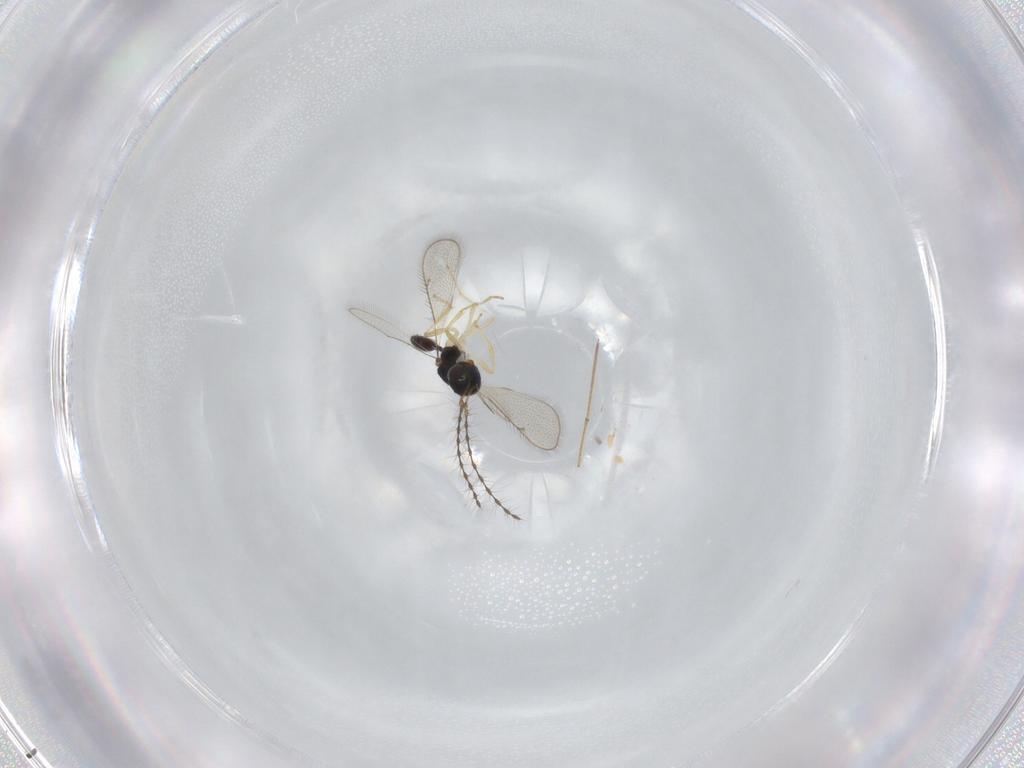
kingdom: Animalia
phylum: Arthropoda
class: Insecta
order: Hymenoptera
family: Diparidae
